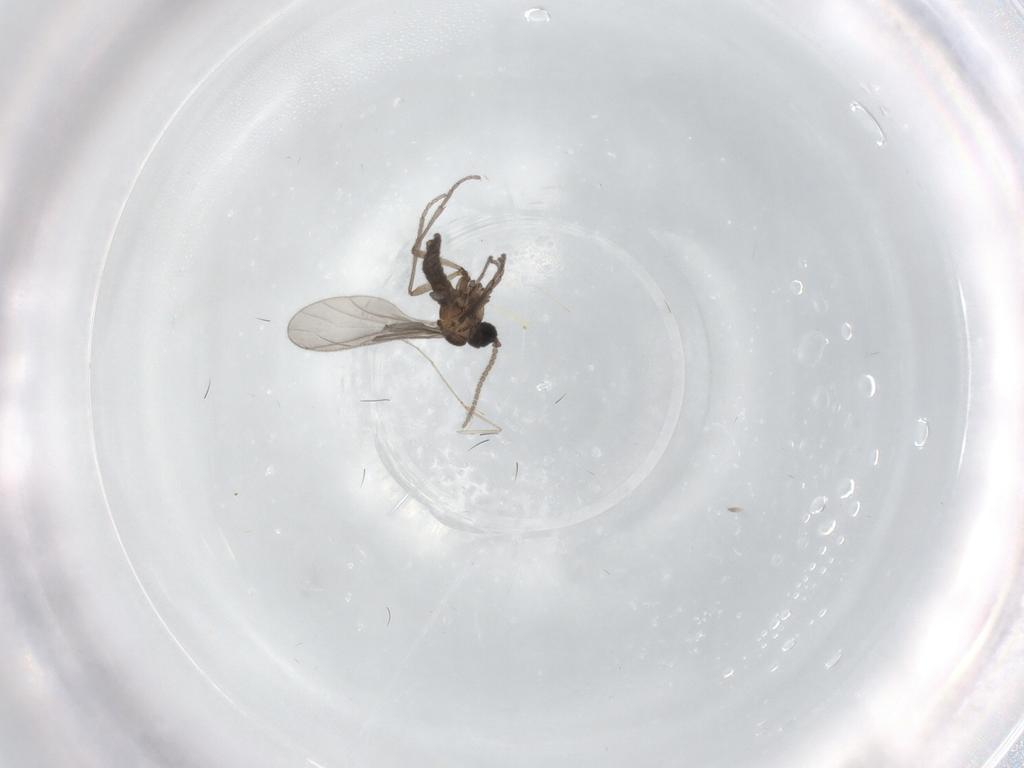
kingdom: Animalia
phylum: Arthropoda
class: Insecta
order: Diptera
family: Sciaridae
